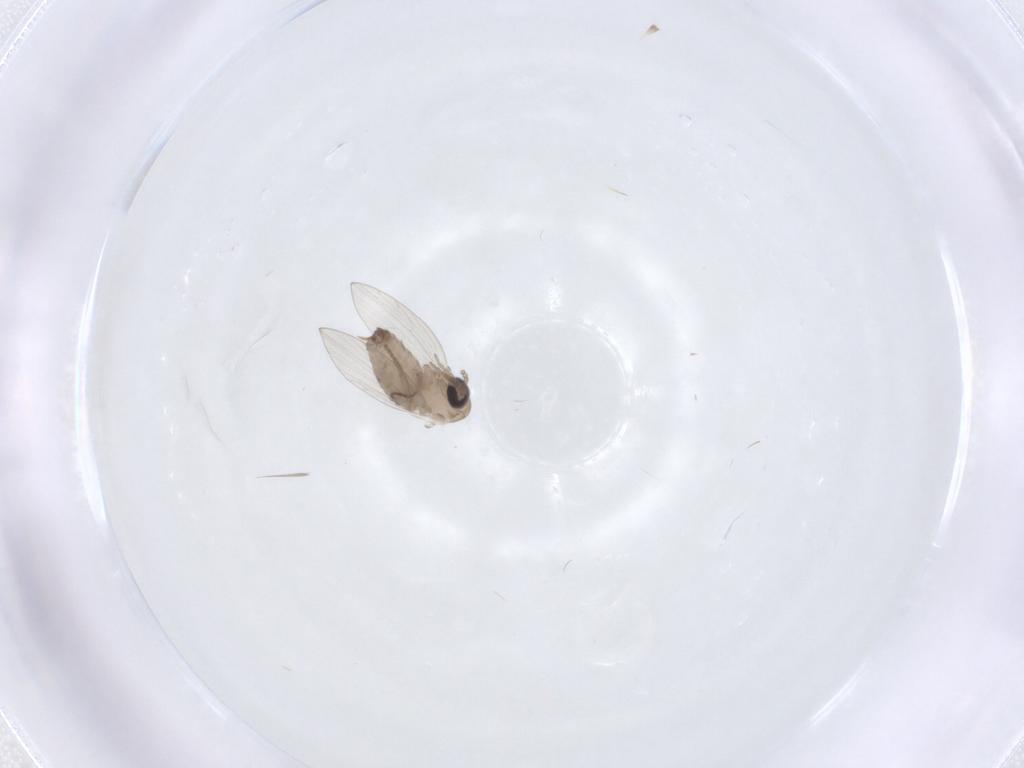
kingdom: Animalia
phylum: Arthropoda
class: Insecta
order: Diptera
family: Psychodidae
